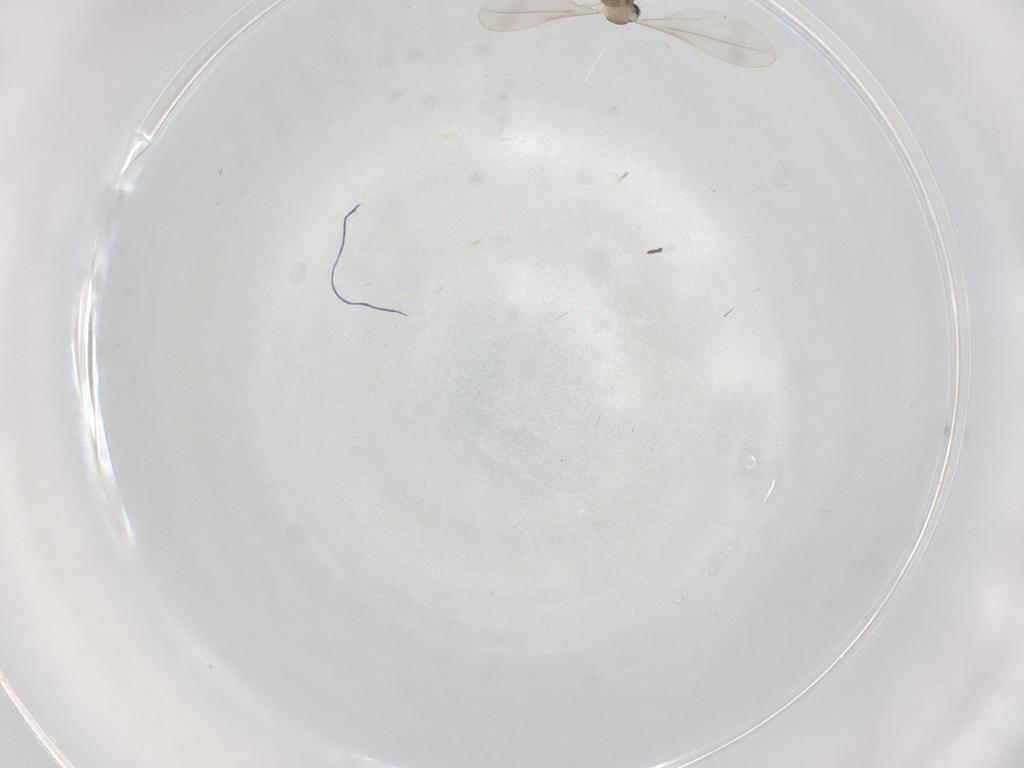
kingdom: Animalia
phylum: Arthropoda
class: Insecta
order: Diptera
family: Cecidomyiidae
